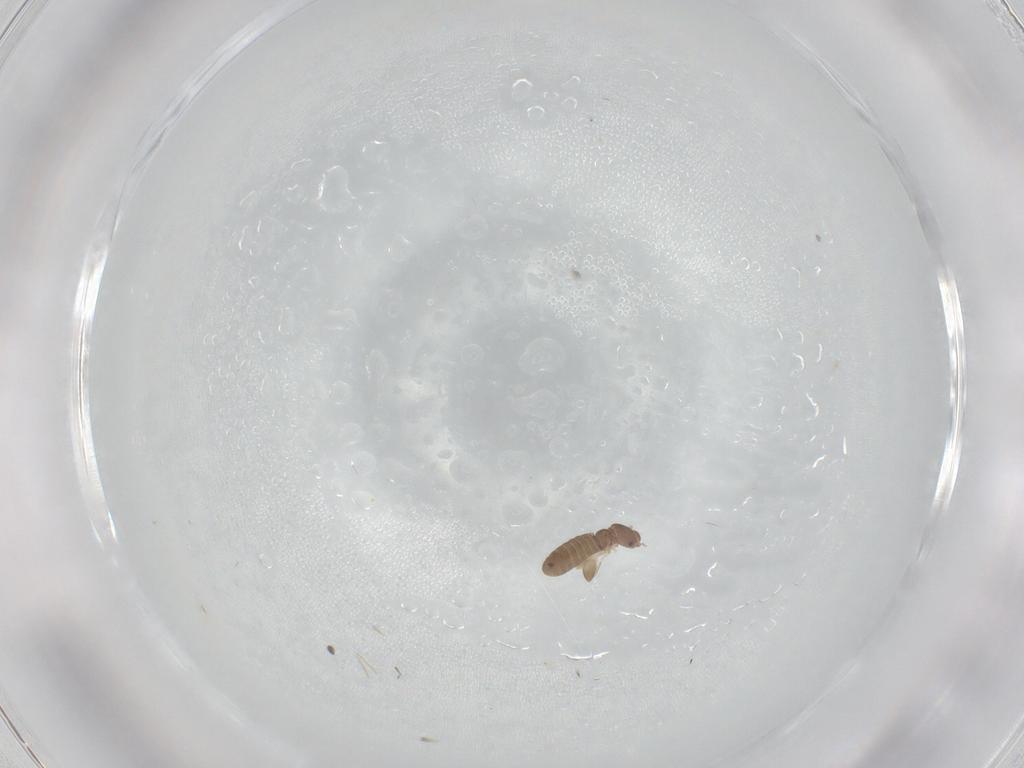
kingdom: Animalia
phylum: Arthropoda
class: Insecta
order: Psocodea
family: Liposcelididae
